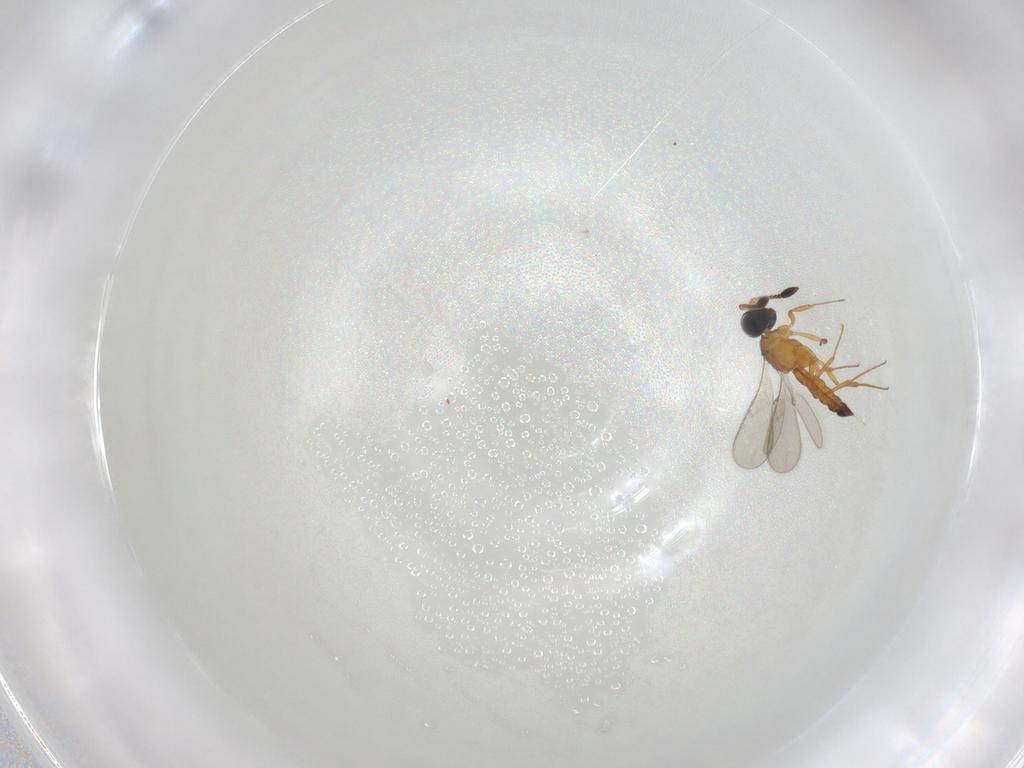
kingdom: Animalia
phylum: Arthropoda
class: Insecta
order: Hymenoptera
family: Scelionidae
